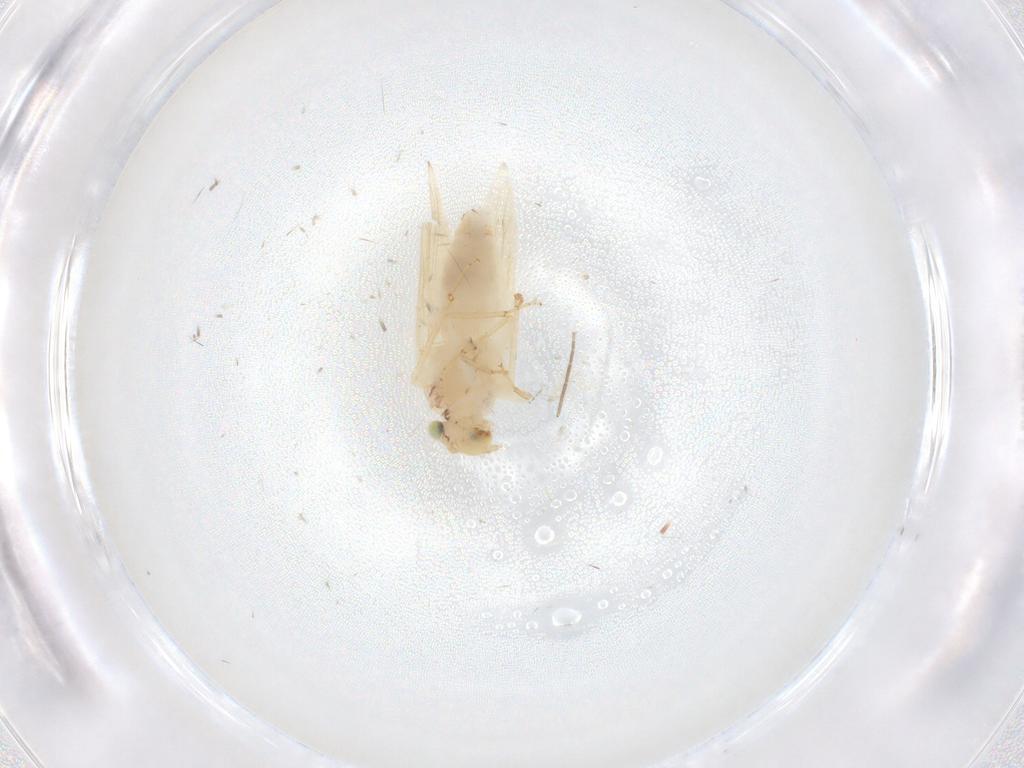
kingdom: Animalia
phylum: Arthropoda
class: Insecta
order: Psocodea
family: Lepidopsocidae
